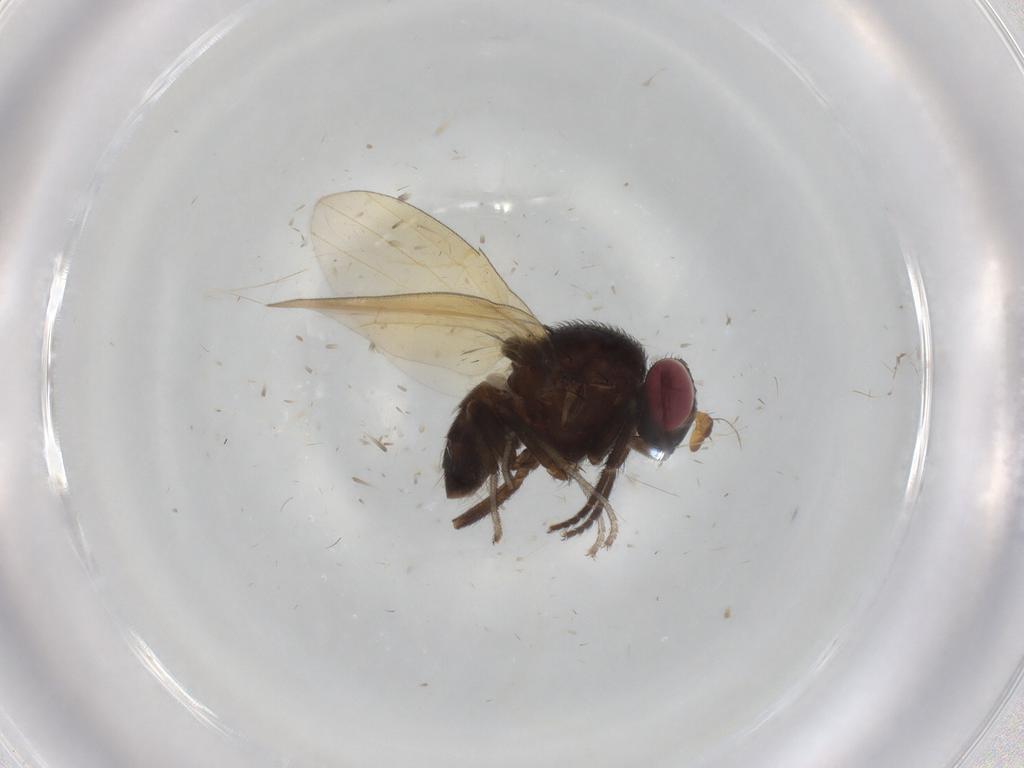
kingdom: Animalia
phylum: Arthropoda
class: Insecta
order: Diptera
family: Lauxaniidae
